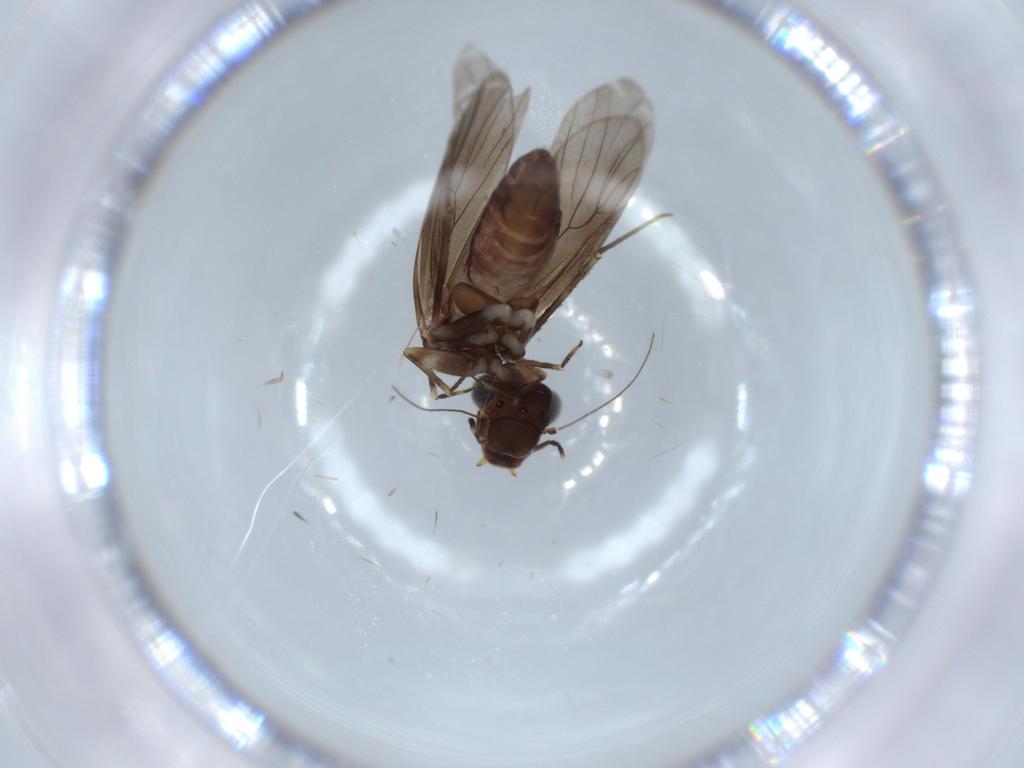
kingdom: Animalia
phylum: Arthropoda
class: Insecta
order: Psocodea
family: Amphientomidae
